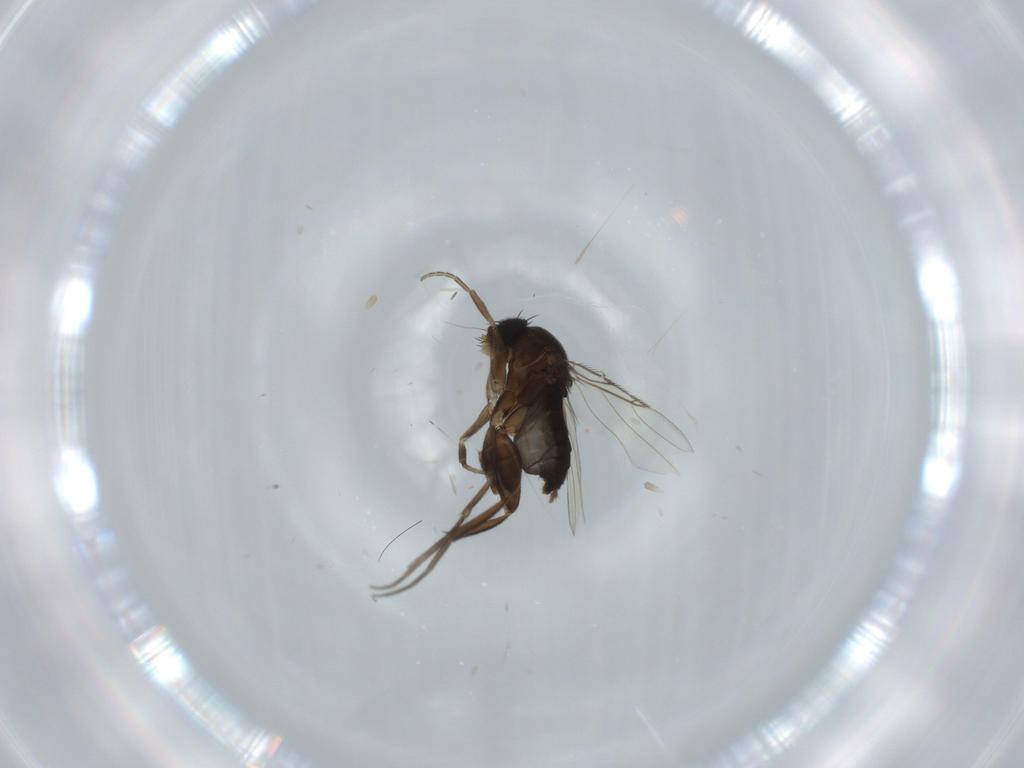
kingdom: Animalia
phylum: Arthropoda
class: Insecta
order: Diptera
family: Phoridae
